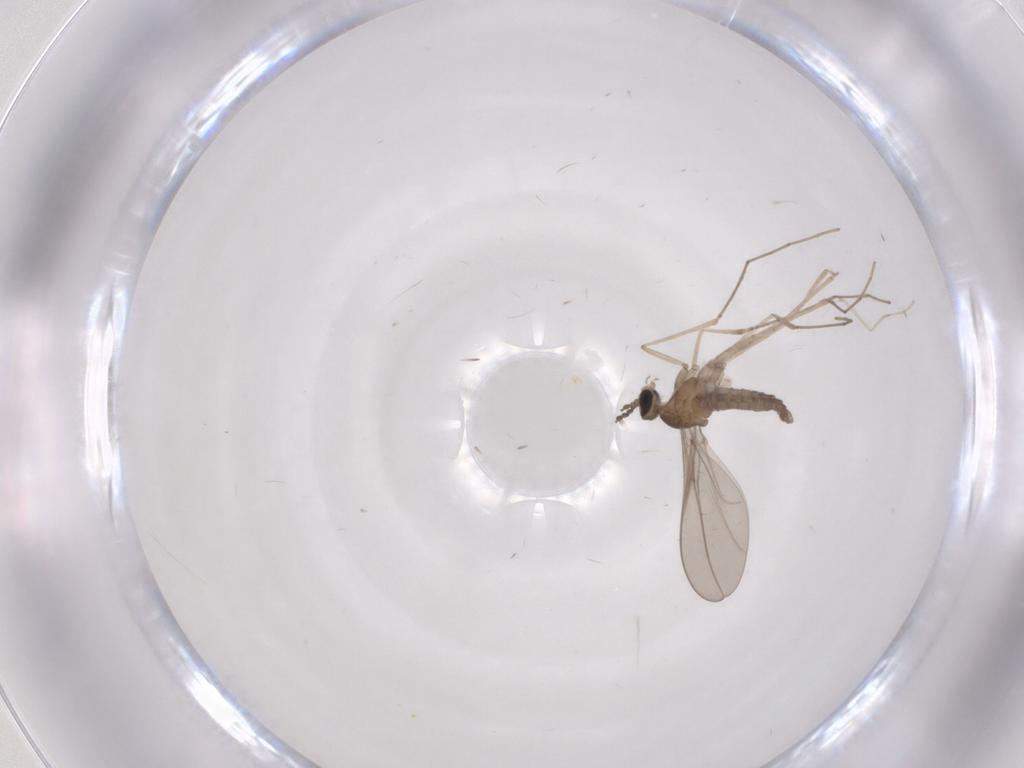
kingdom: Animalia
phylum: Arthropoda
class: Insecta
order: Diptera
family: Cecidomyiidae
